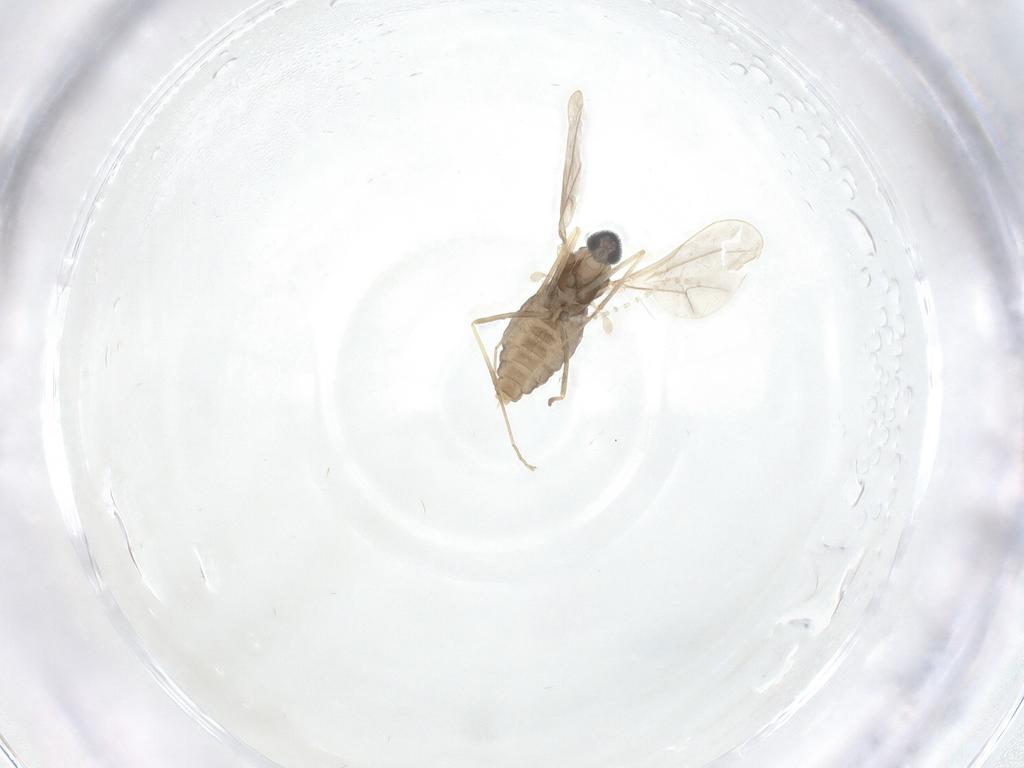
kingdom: Animalia
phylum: Arthropoda
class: Insecta
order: Diptera
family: Cecidomyiidae
